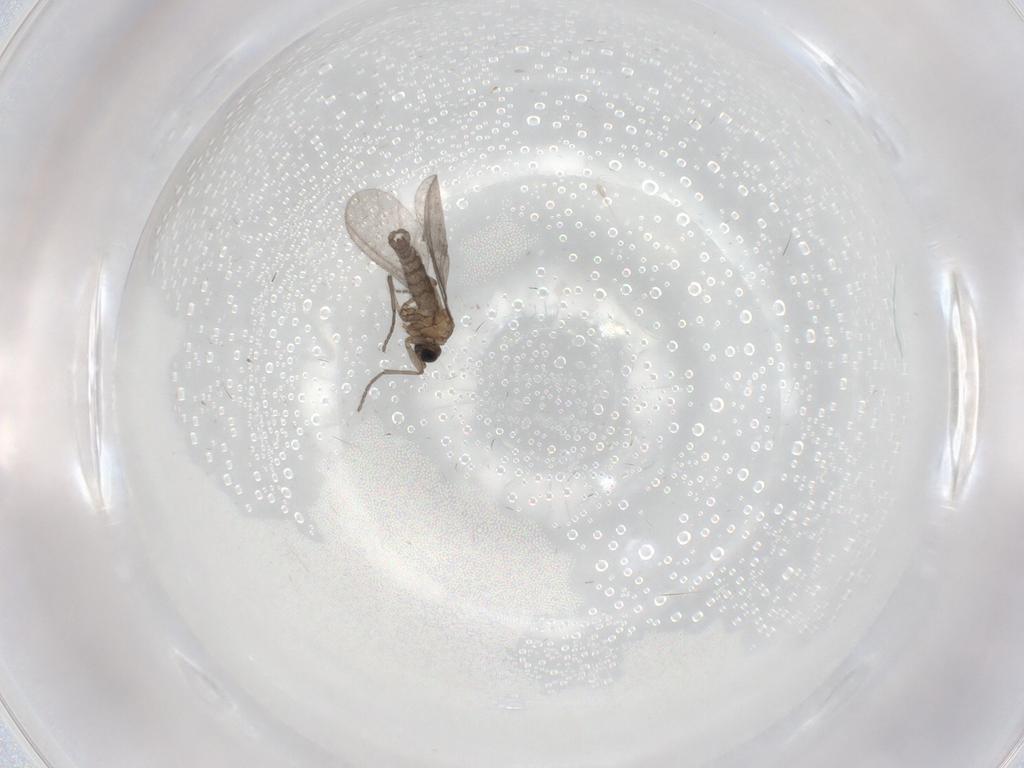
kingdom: Animalia
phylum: Arthropoda
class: Insecta
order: Diptera
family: Sciaridae
